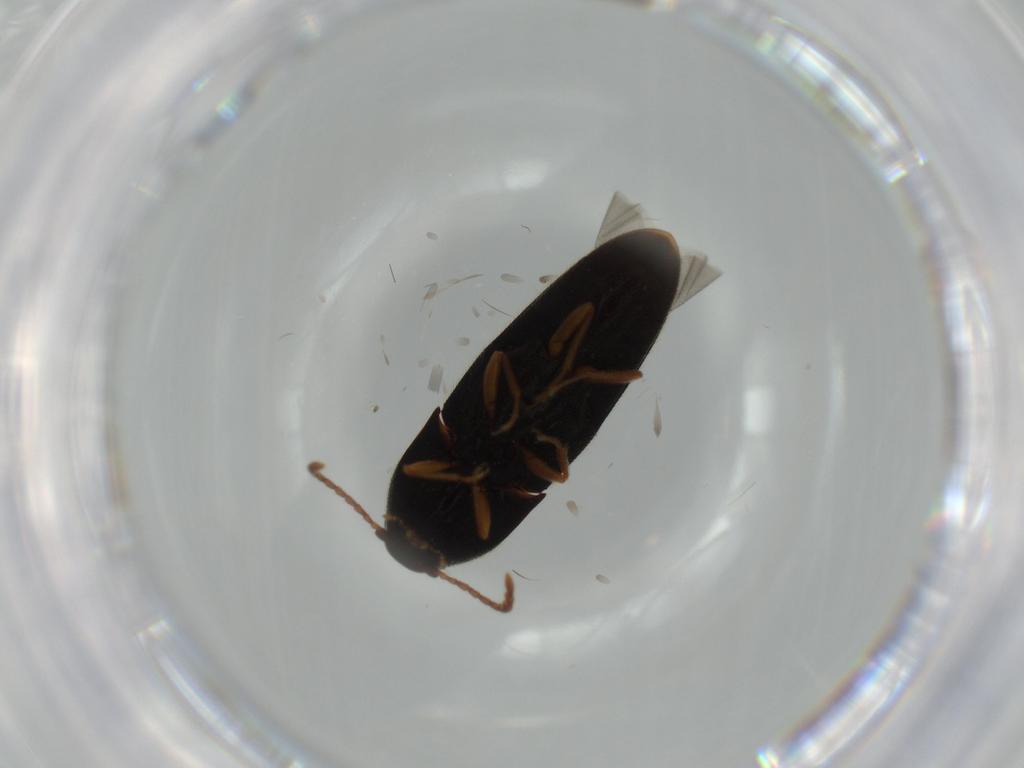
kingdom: Animalia
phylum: Arthropoda
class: Insecta
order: Coleoptera
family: Elateridae
